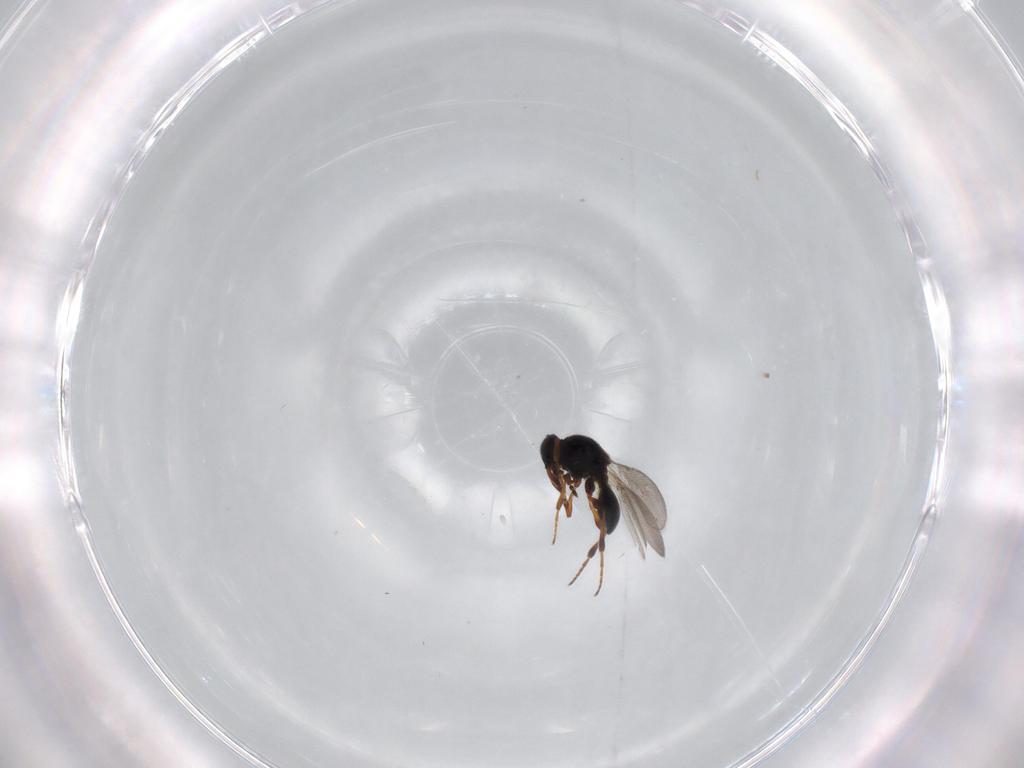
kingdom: Animalia
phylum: Arthropoda
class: Insecta
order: Hymenoptera
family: Platygastridae
